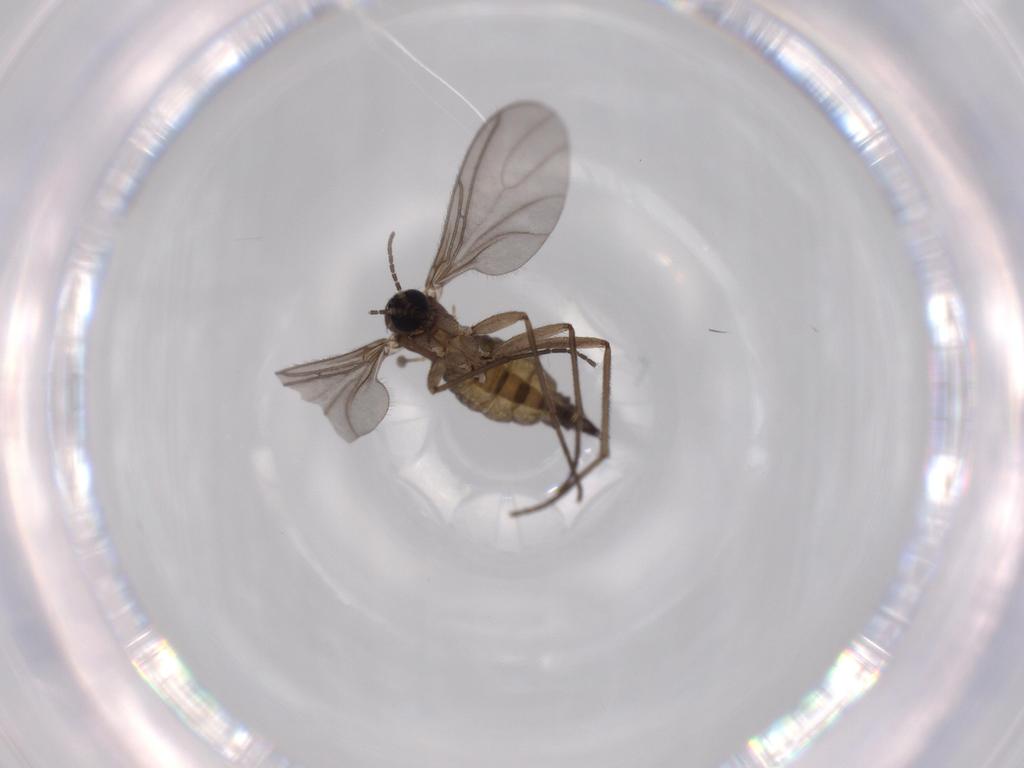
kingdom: Animalia
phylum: Arthropoda
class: Insecta
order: Diptera
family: Sciaridae
